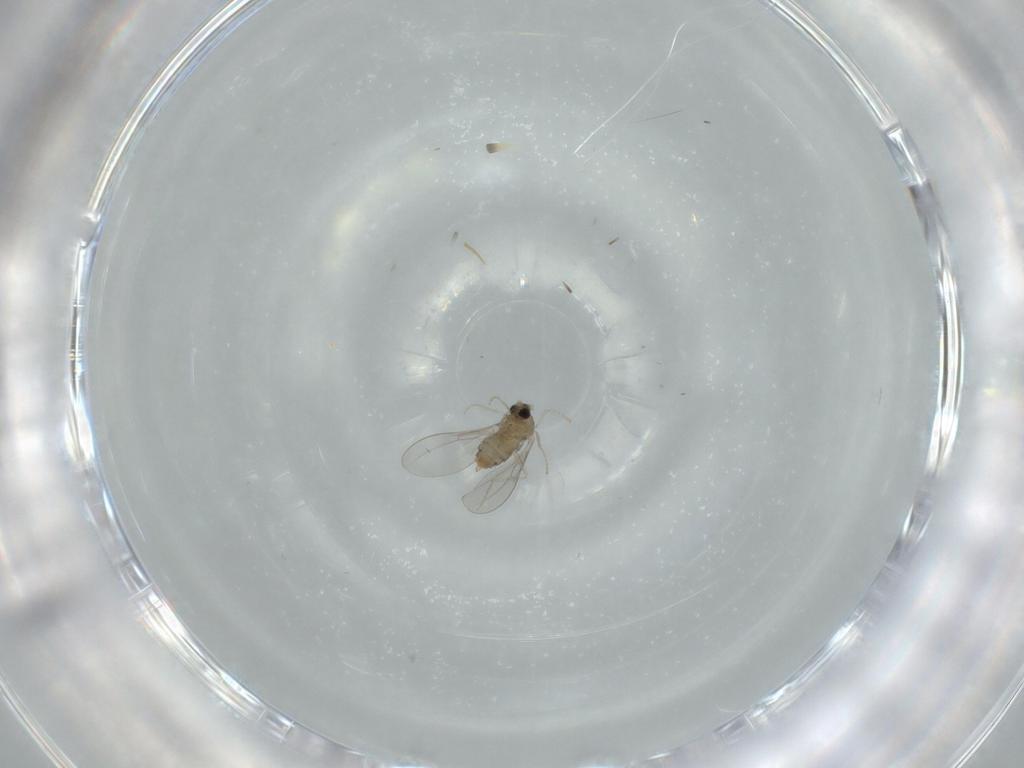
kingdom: Animalia
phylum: Arthropoda
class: Insecta
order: Diptera
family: Cecidomyiidae
